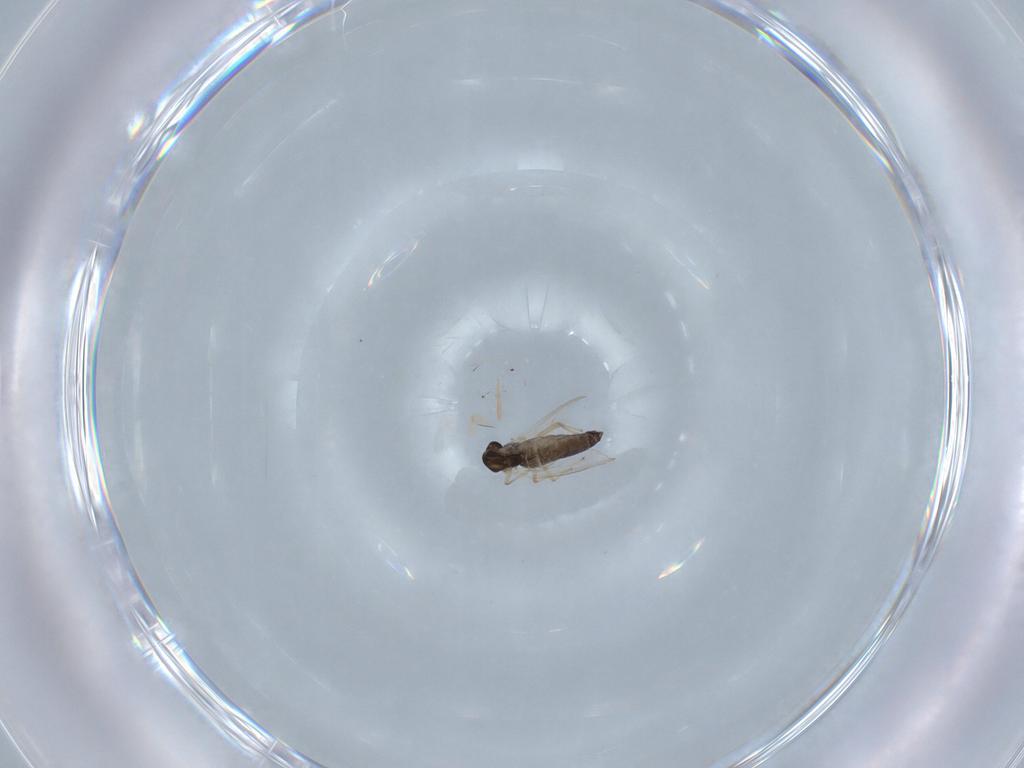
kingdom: Animalia
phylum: Arthropoda
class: Insecta
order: Diptera
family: Chironomidae
